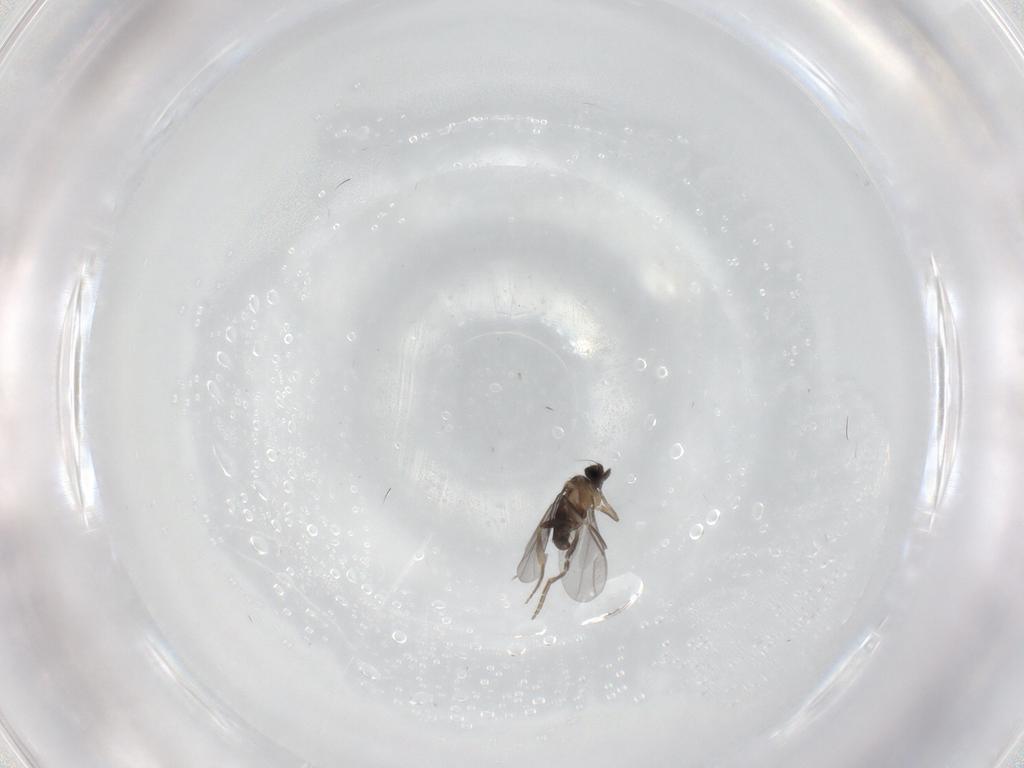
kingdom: Animalia
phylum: Arthropoda
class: Insecta
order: Diptera
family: Psychodidae
